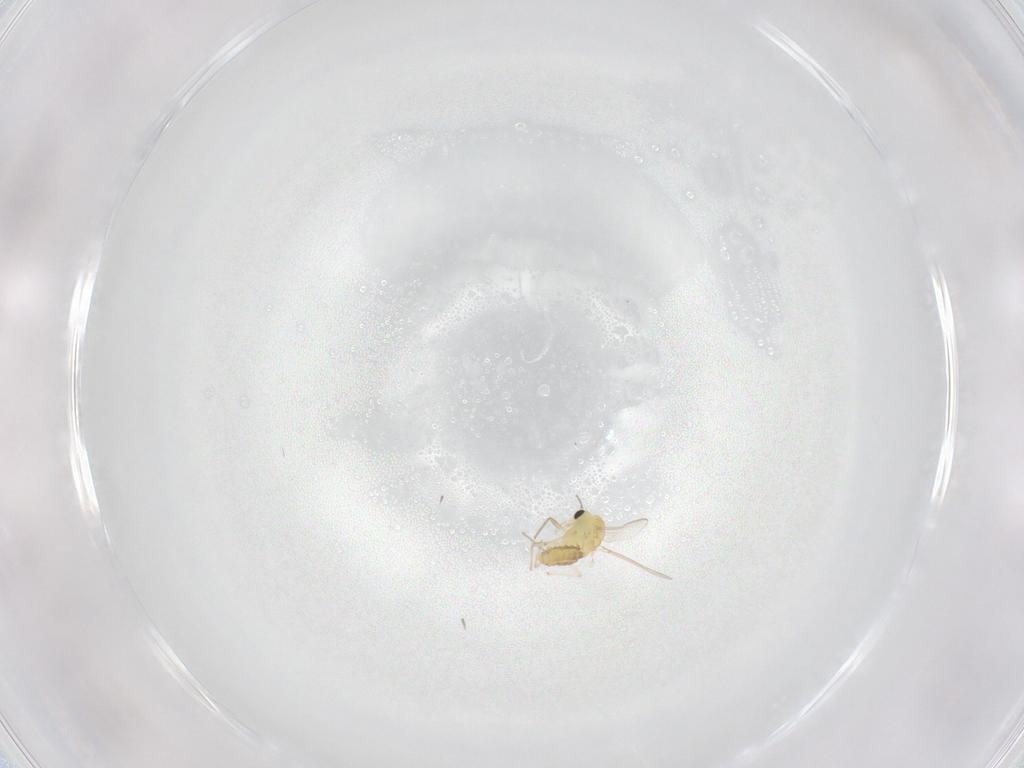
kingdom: Animalia
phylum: Arthropoda
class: Insecta
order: Diptera
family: Chironomidae
